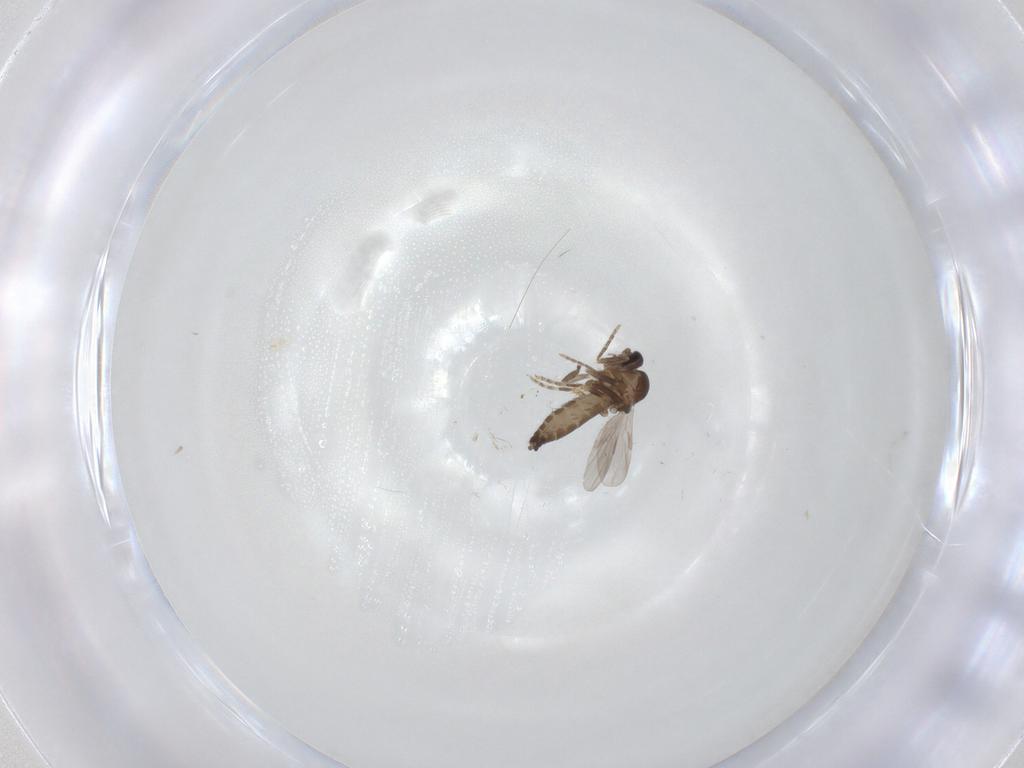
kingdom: Animalia
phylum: Arthropoda
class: Insecta
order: Diptera
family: Ceratopogonidae
